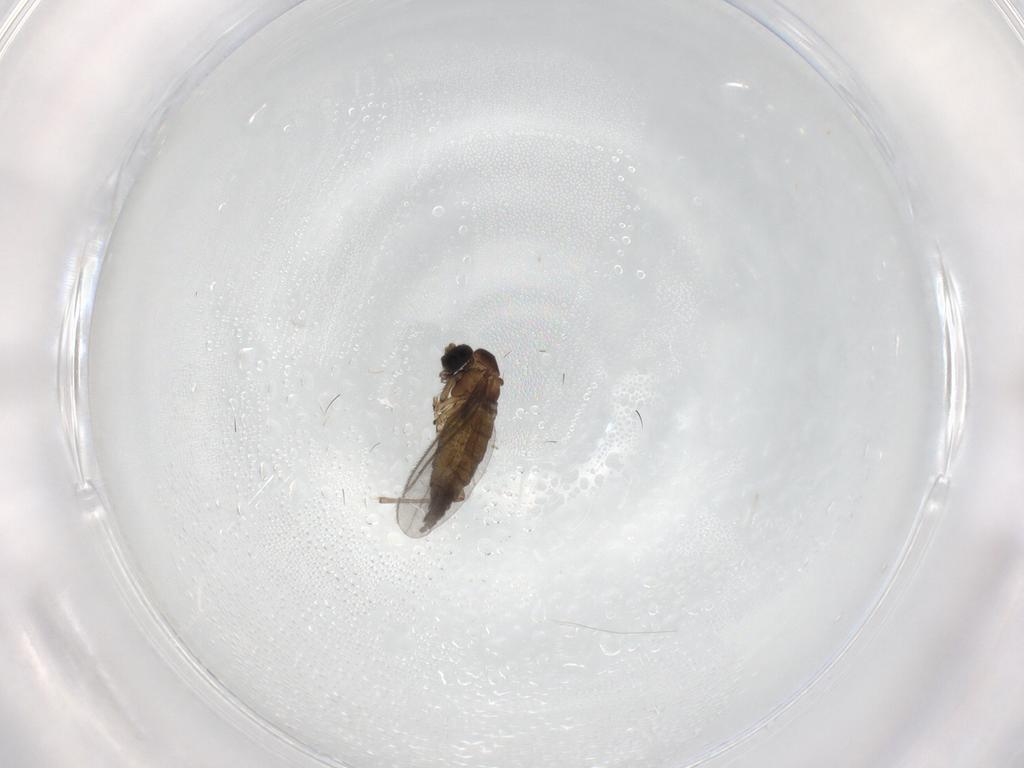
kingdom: Animalia
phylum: Arthropoda
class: Insecta
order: Diptera
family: Sciaridae
